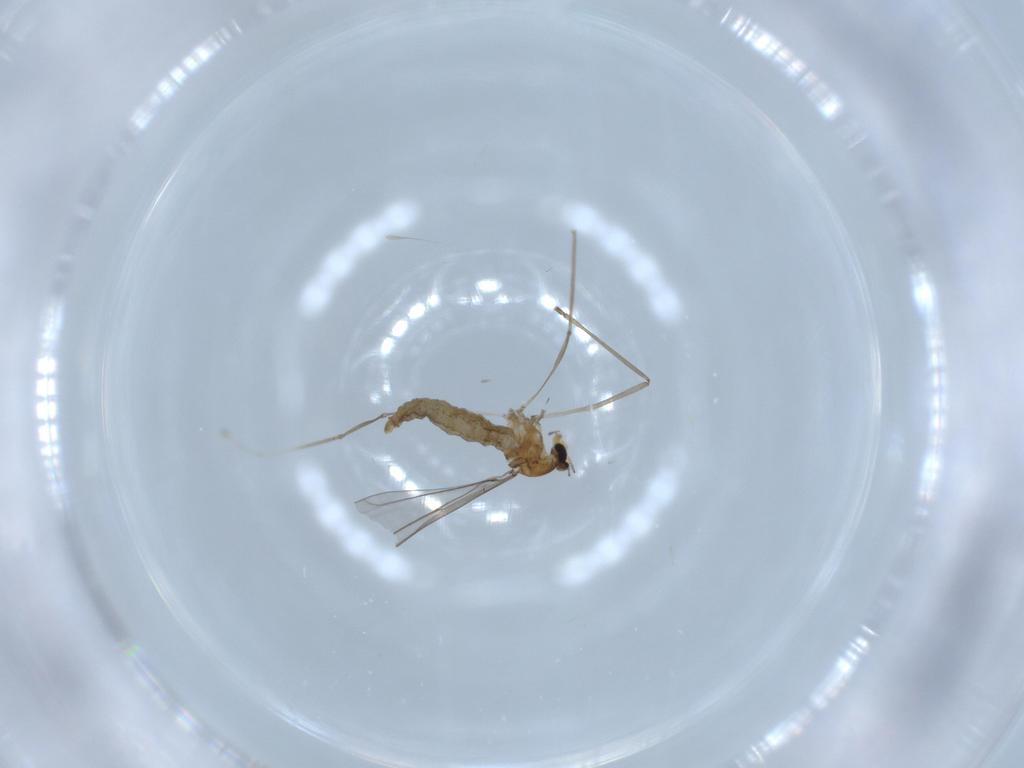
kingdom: Animalia
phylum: Arthropoda
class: Insecta
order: Diptera
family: Cecidomyiidae
